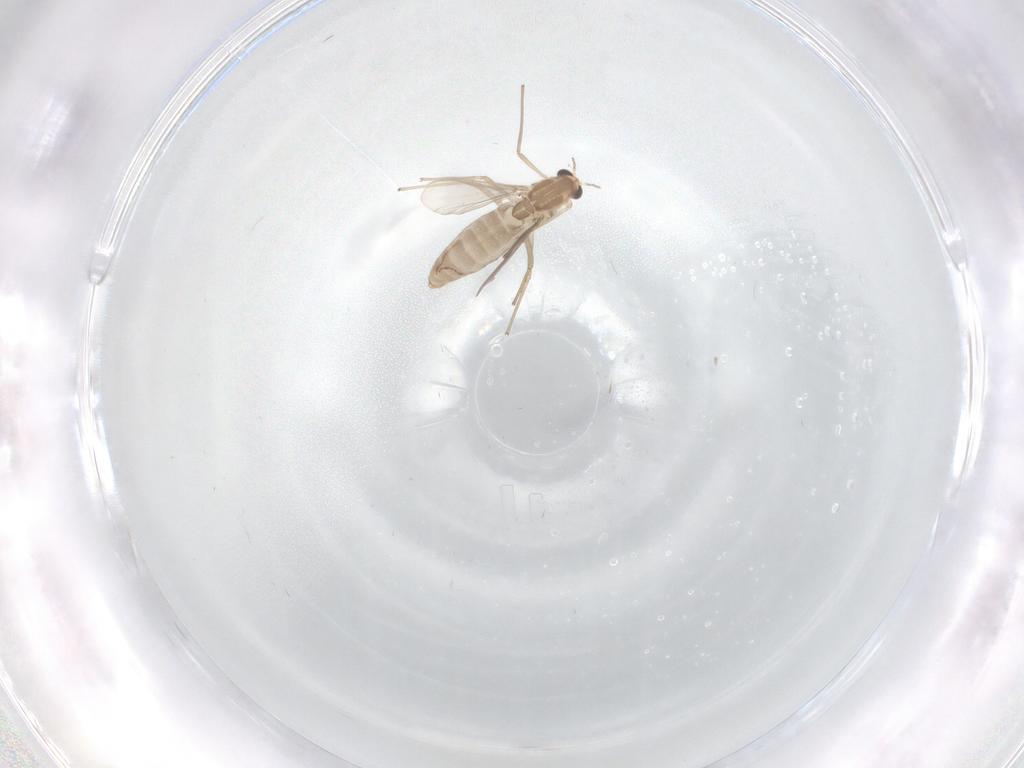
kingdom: Animalia
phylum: Arthropoda
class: Insecta
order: Diptera
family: Chironomidae
